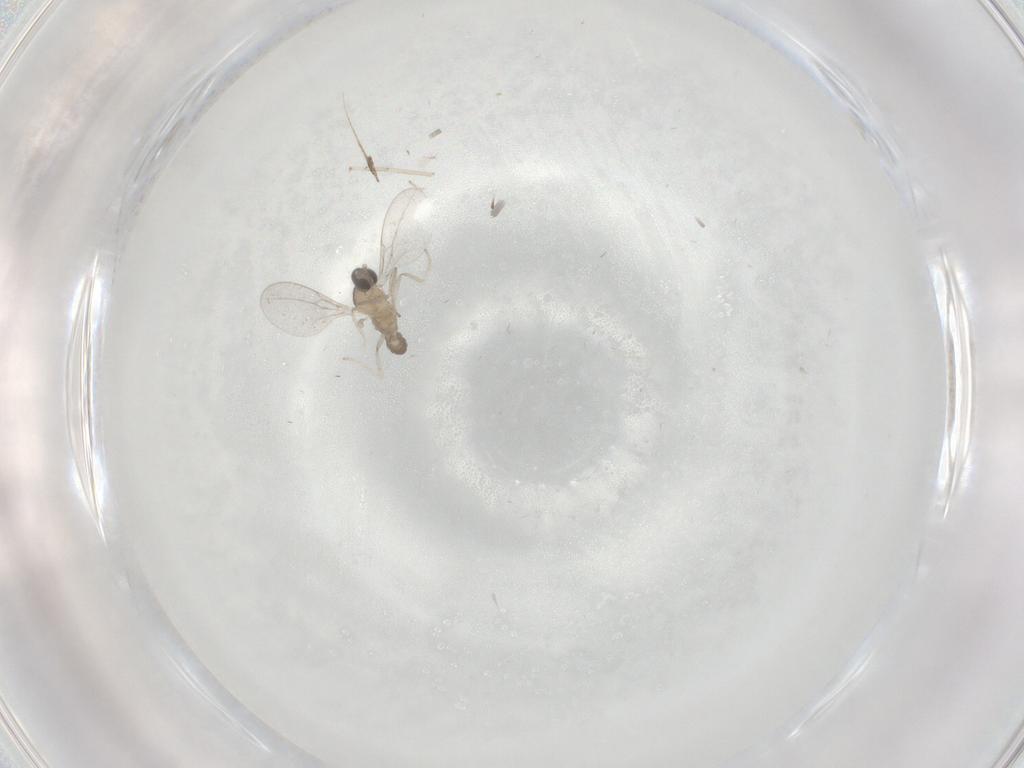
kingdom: Animalia
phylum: Arthropoda
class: Insecta
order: Diptera
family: Cecidomyiidae
